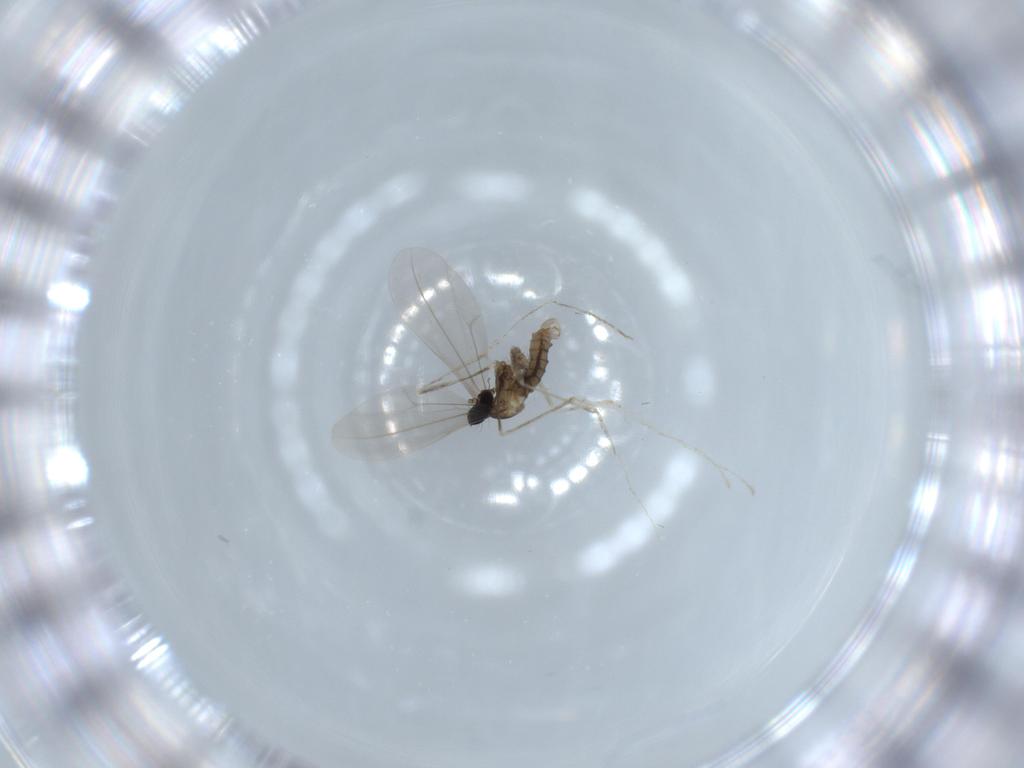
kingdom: Animalia
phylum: Arthropoda
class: Insecta
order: Diptera
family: Cecidomyiidae
